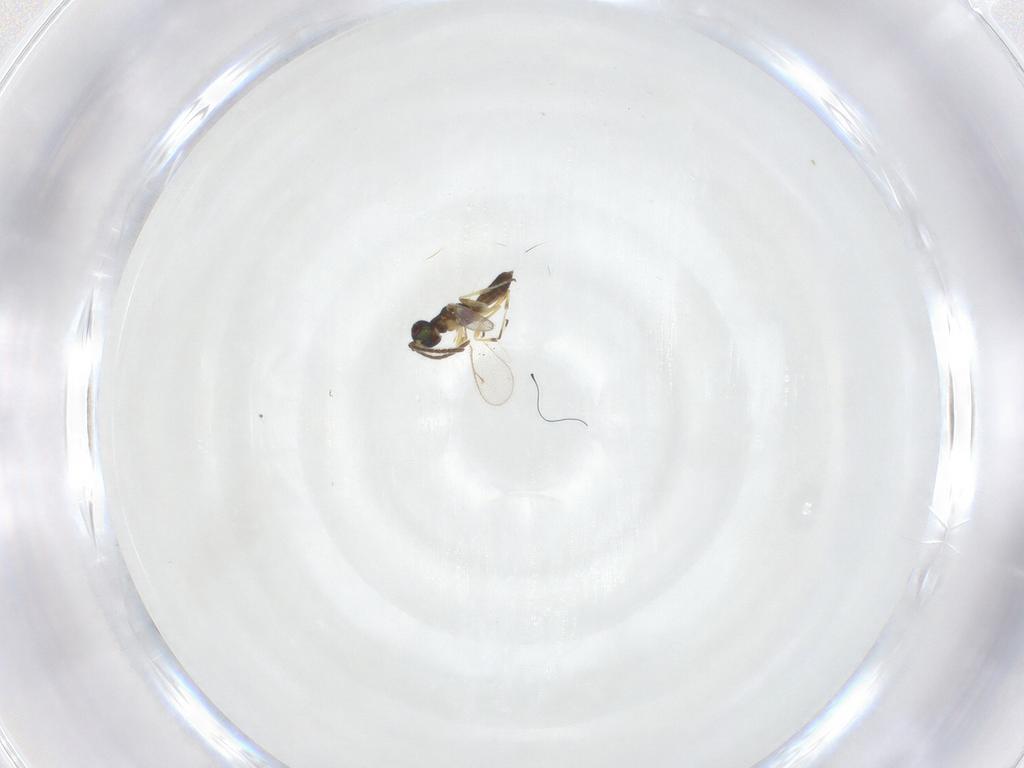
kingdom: Animalia
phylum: Arthropoda
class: Insecta
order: Hymenoptera
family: Eupelmidae
